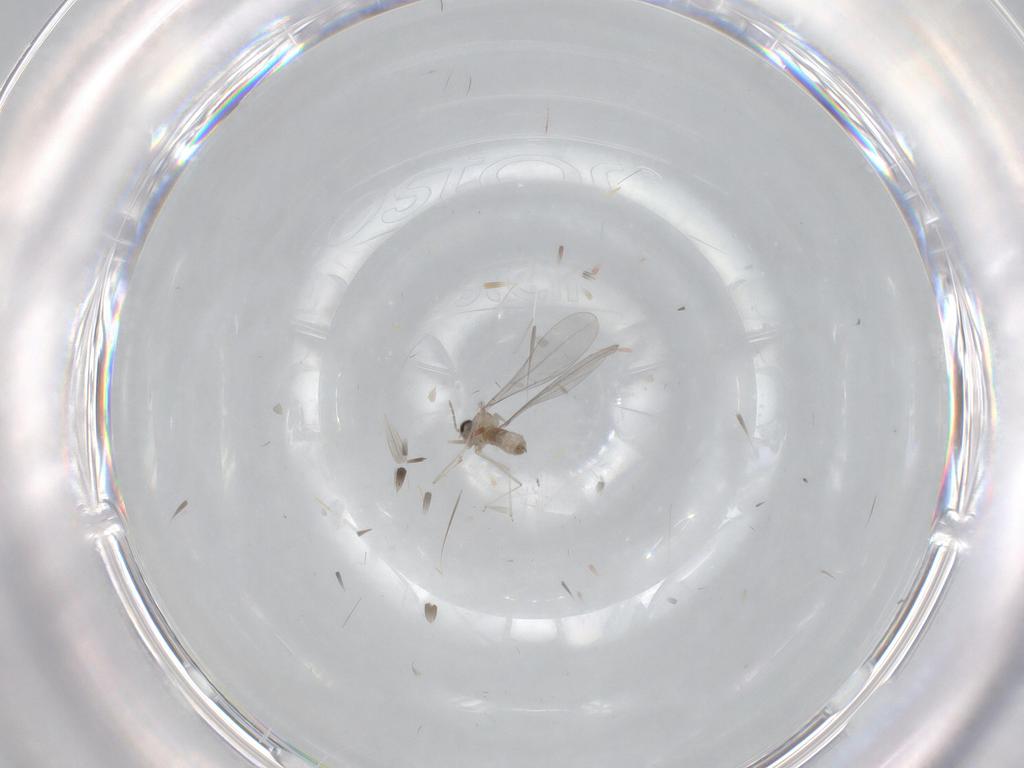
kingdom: Animalia
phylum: Arthropoda
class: Insecta
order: Diptera
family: Cecidomyiidae
